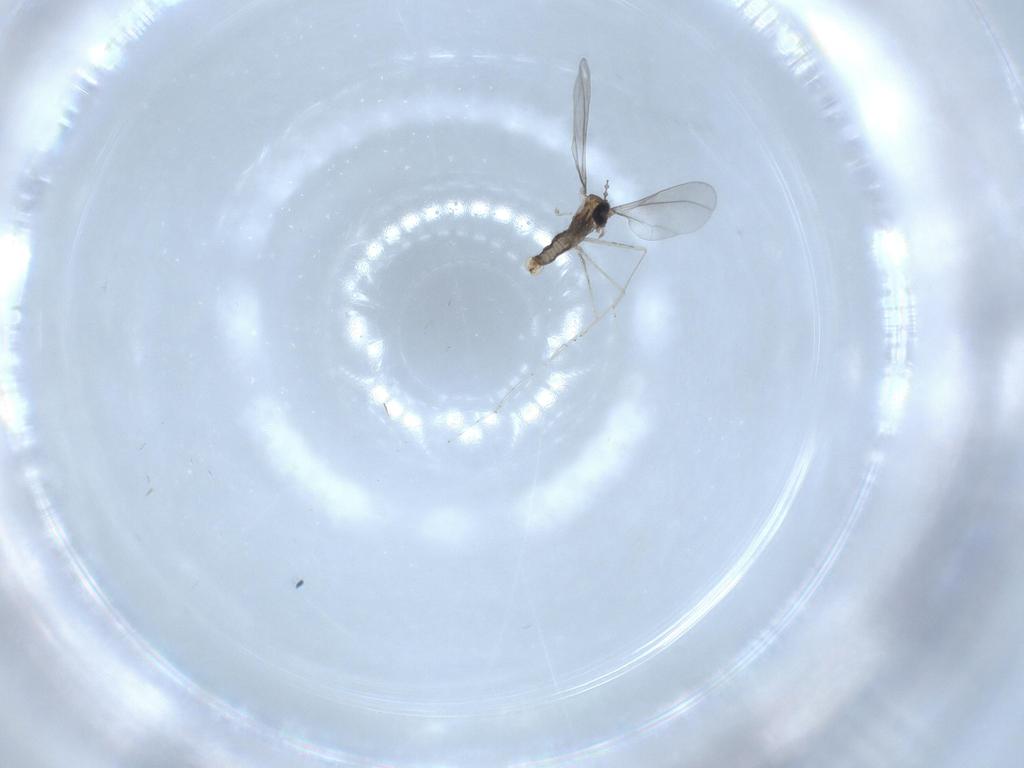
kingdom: Animalia
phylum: Arthropoda
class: Insecta
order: Diptera
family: Cecidomyiidae
